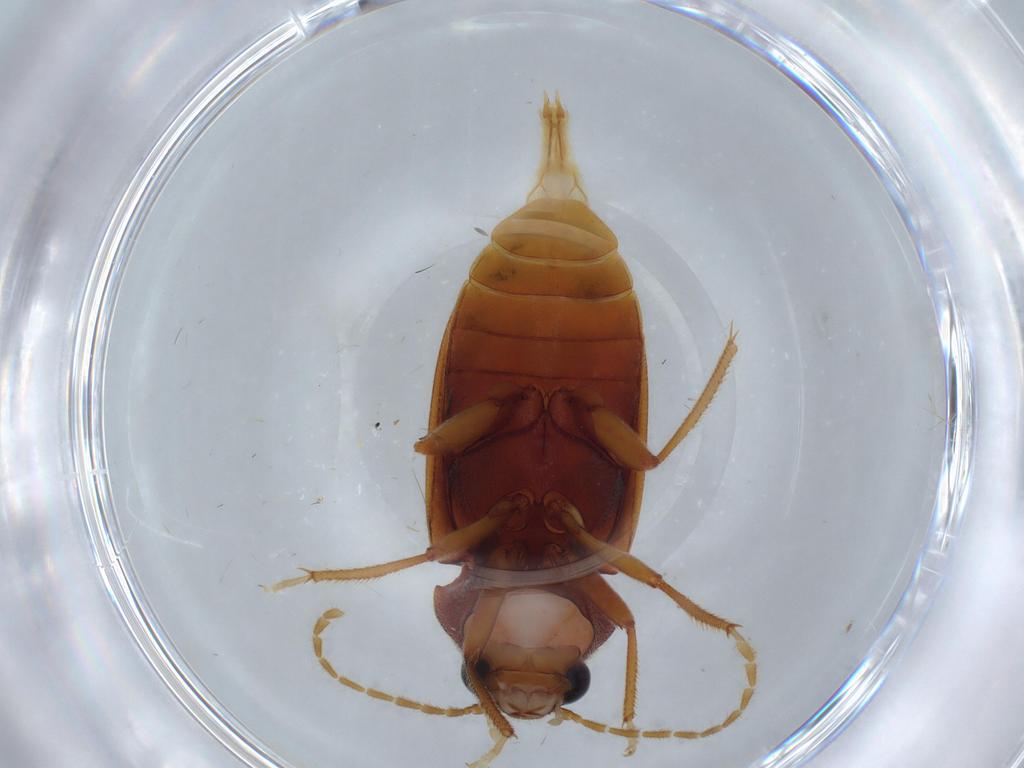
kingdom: Animalia
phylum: Arthropoda
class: Insecta
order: Coleoptera
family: Ptilodactylidae
